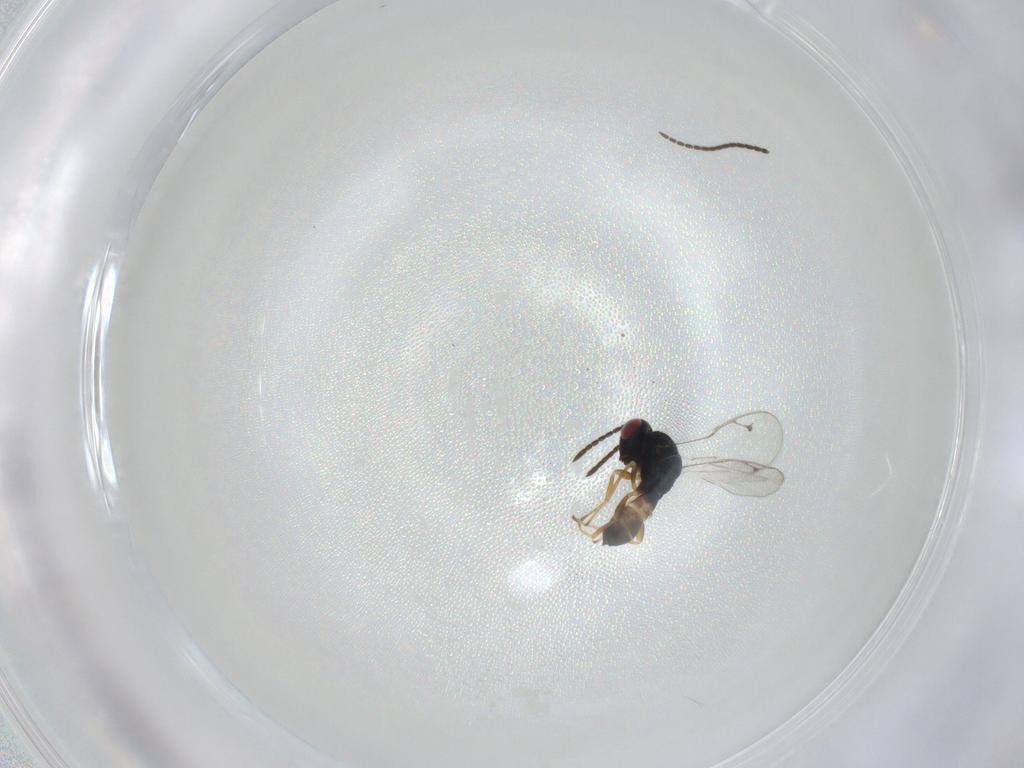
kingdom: Animalia
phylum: Arthropoda
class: Insecta
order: Hymenoptera
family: Pteromalidae
